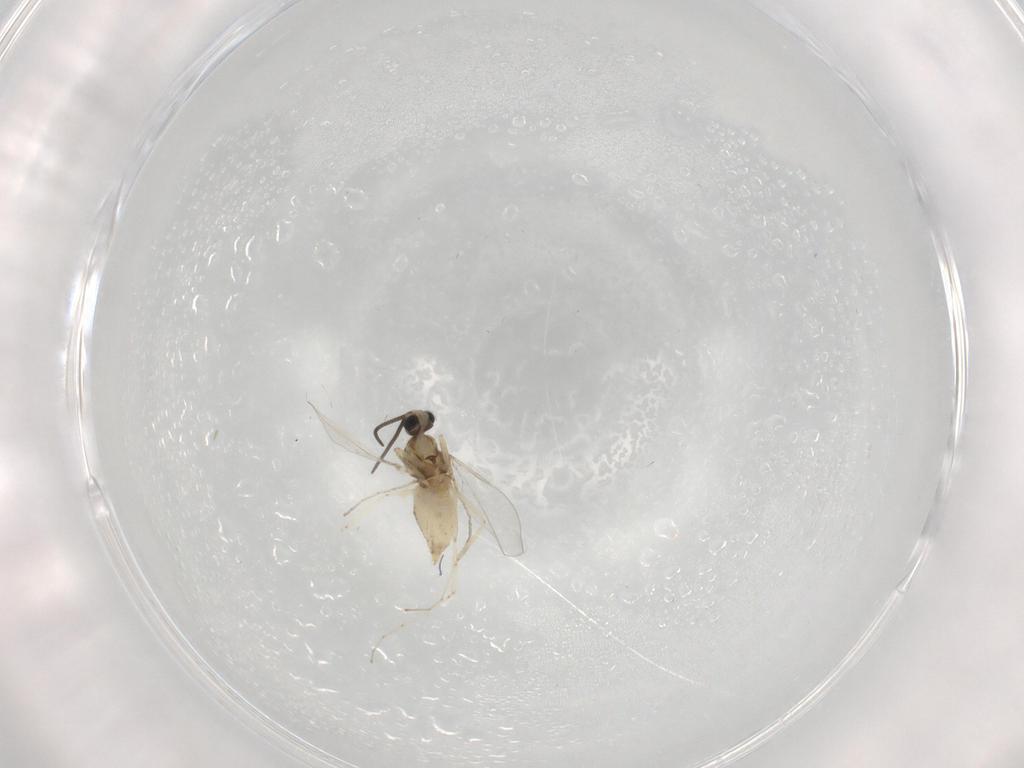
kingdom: Animalia
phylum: Arthropoda
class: Insecta
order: Diptera
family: Cecidomyiidae
